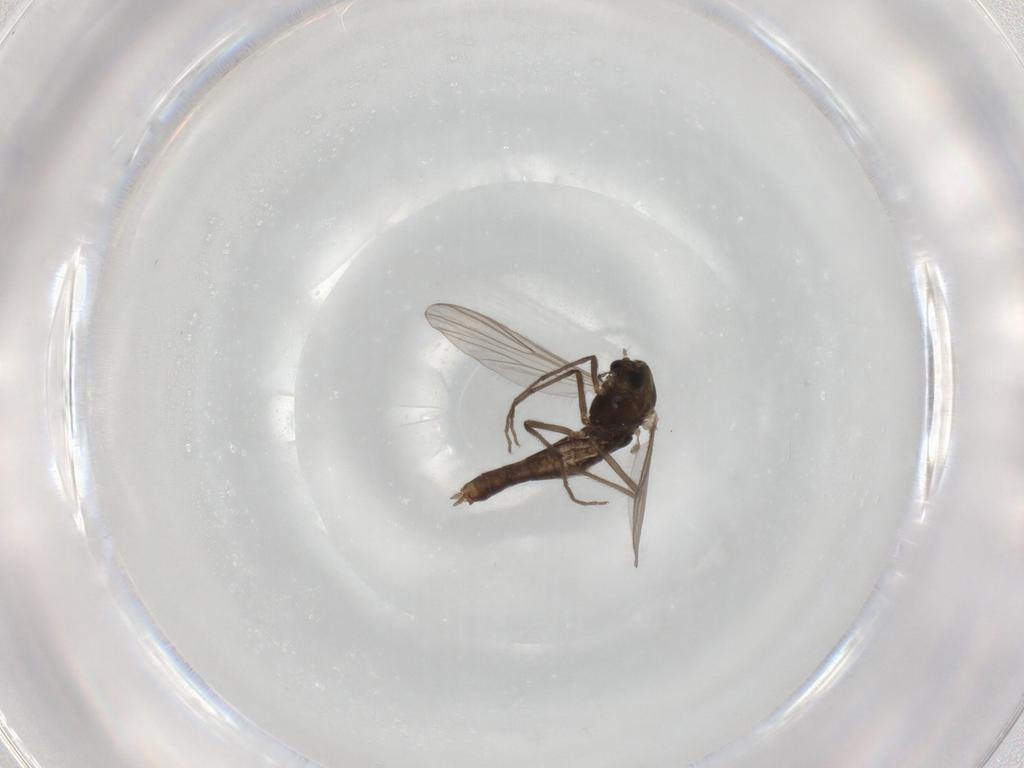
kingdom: Animalia
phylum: Arthropoda
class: Insecta
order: Diptera
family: Chironomidae
